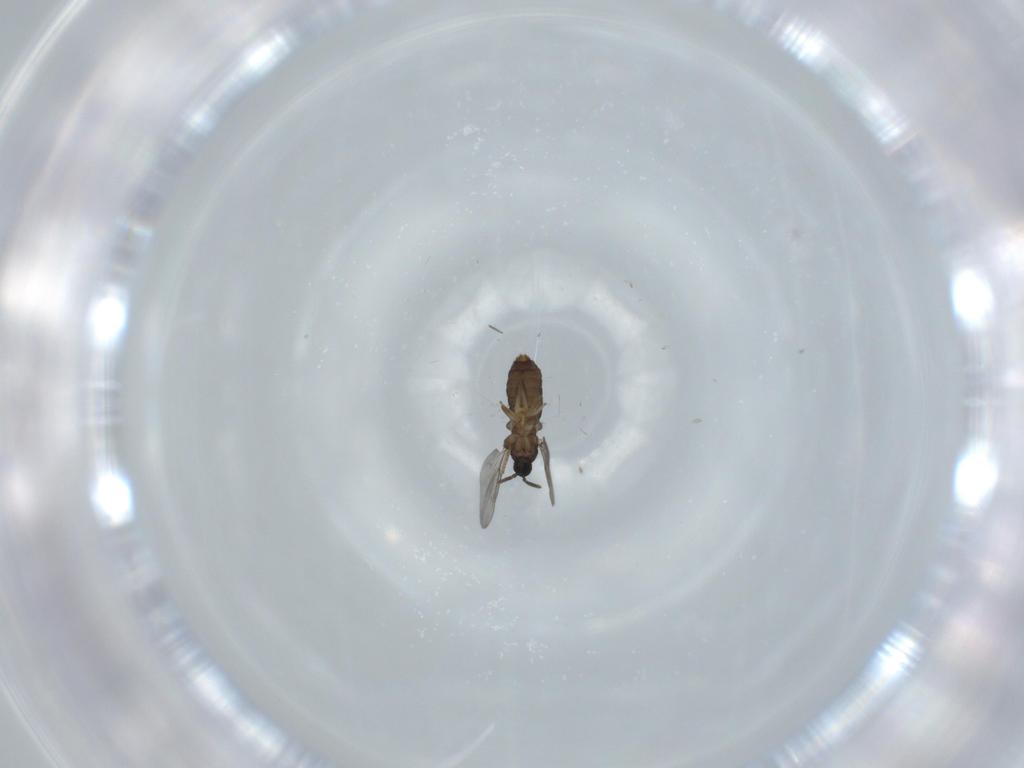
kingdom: Animalia
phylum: Arthropoda
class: Insecta
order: Diptera
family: Scatopsidae
